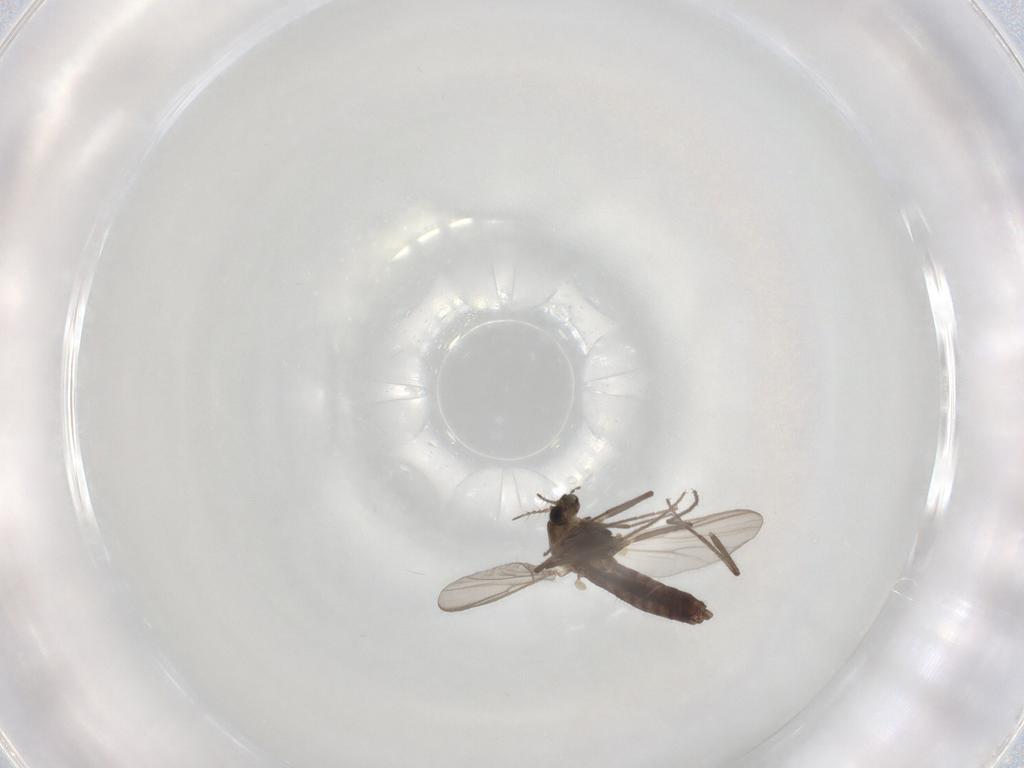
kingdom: Animalia
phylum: Arthropoda
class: Insecta
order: Diptera
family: Chironomidae
